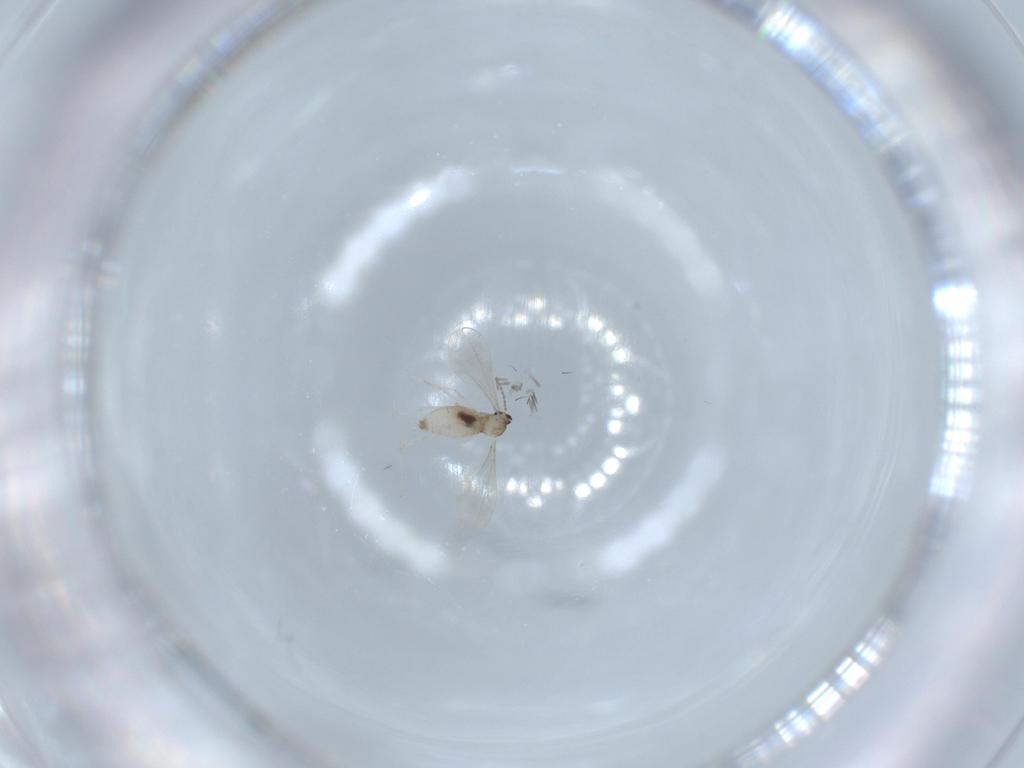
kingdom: Animalia
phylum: Arthropoda
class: Insecta
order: Diptera
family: Cecidomyiidae
